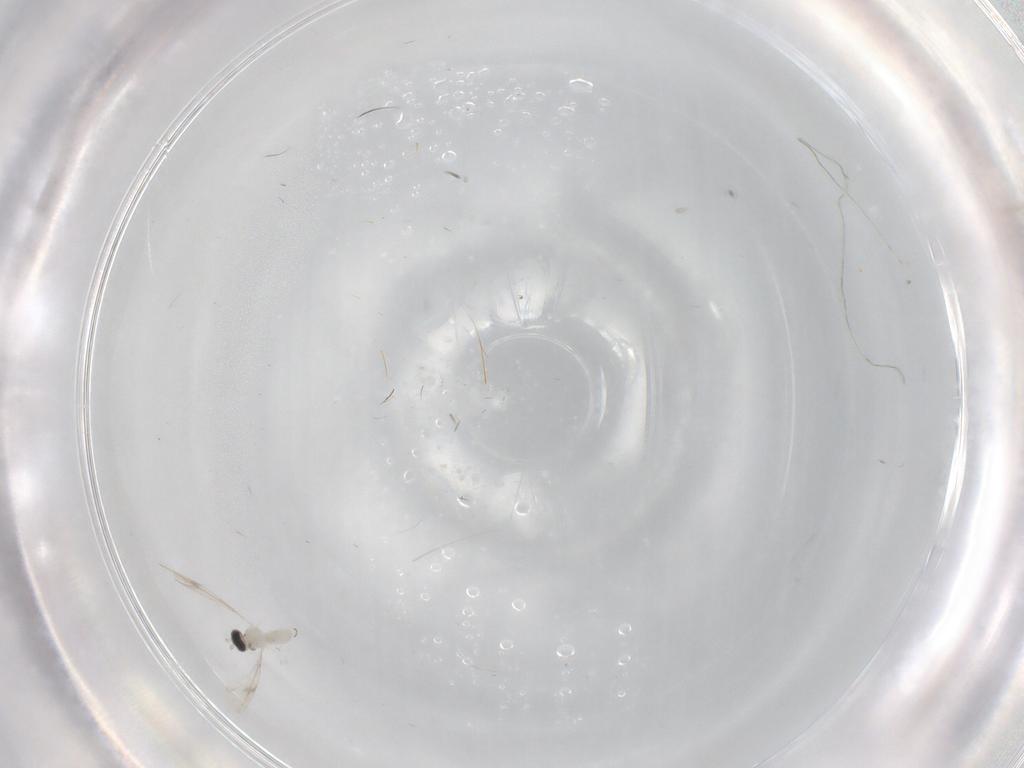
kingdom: Animalia
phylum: Arthropoda
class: Insecta
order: Diptera
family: Cecidomyiidae
